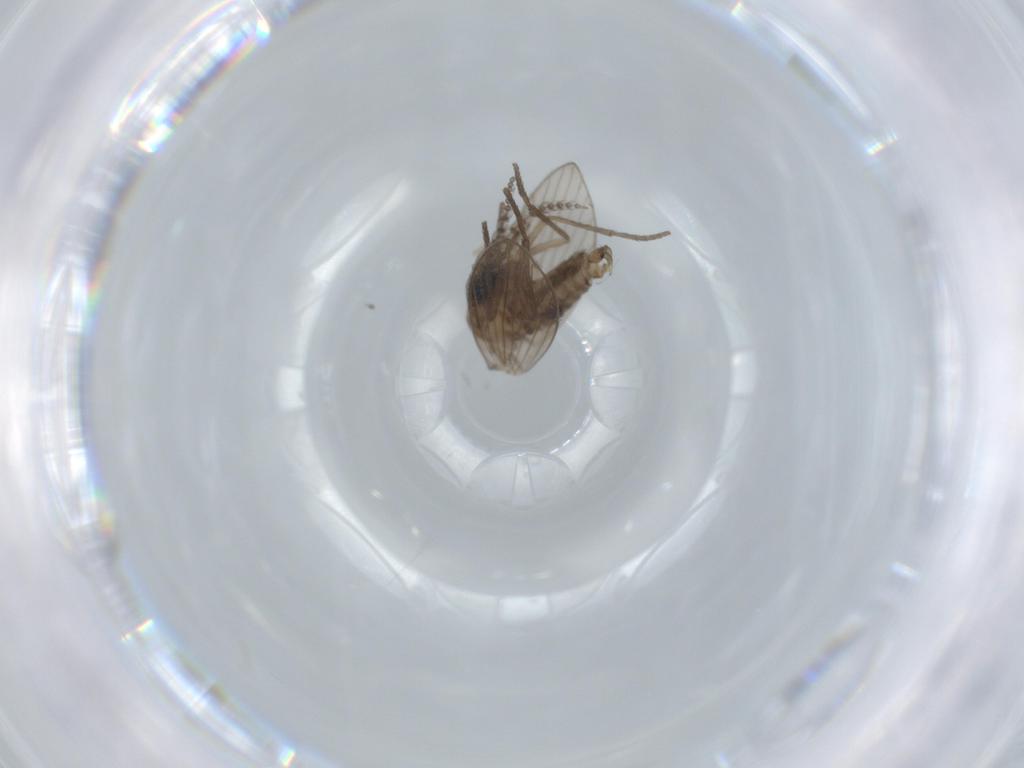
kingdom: Animalia
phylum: Arthropoda
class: Insecta
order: Diptera
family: Psychodidae
